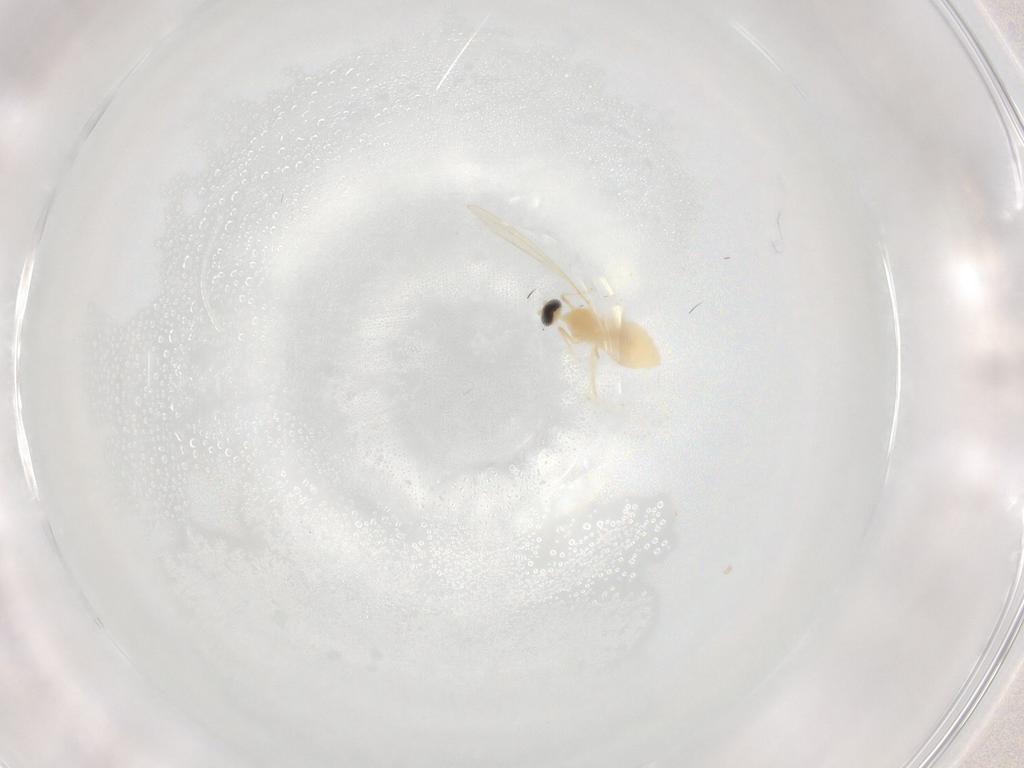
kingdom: Animalia
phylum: Arthropoda
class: Insecta
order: Diptera
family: Cecidomyiidae
